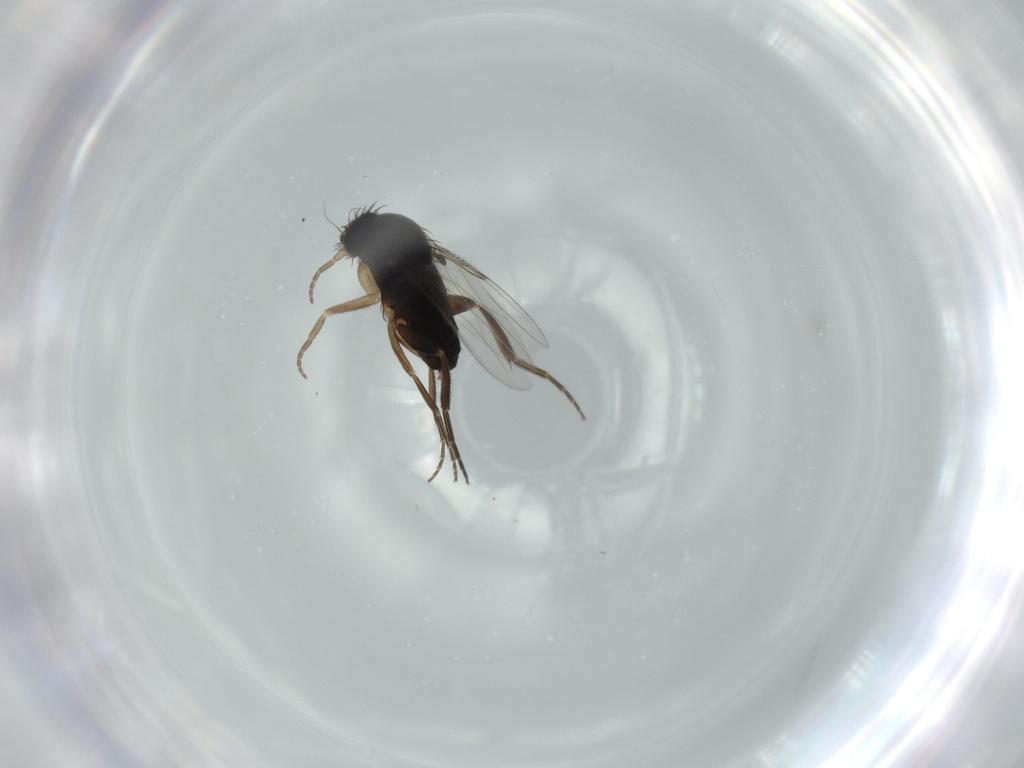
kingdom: Animalia
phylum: Arthropoda
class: Insecta
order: Diptera
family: Phoridae
